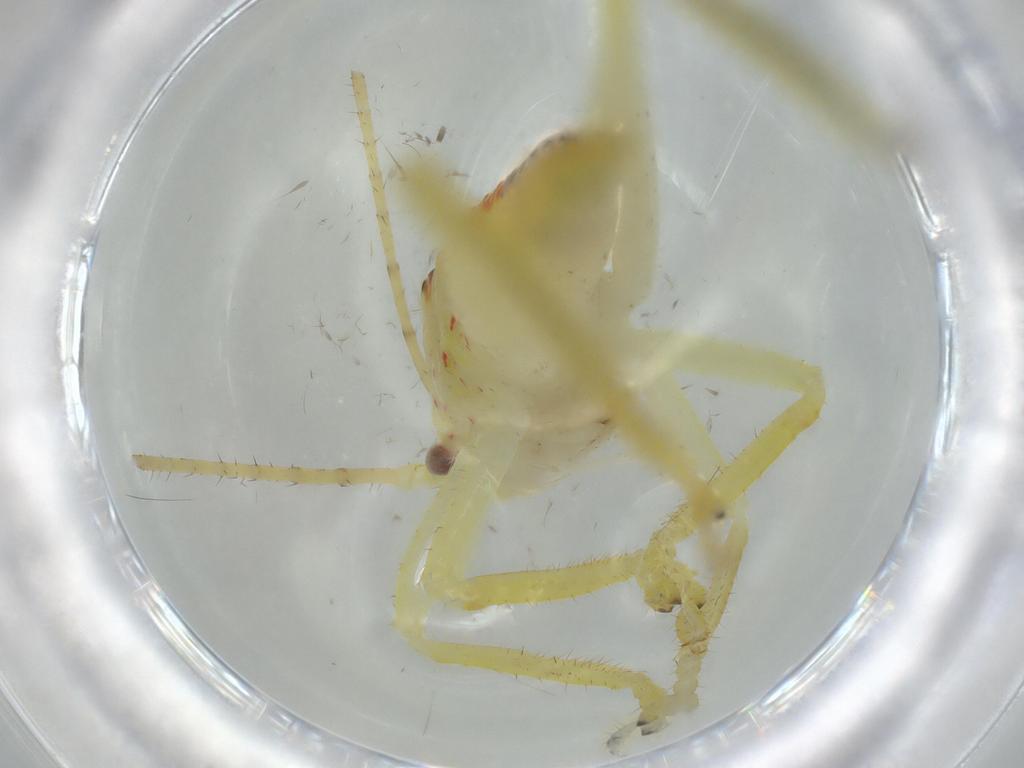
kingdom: Animalia
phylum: Arthropoda
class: Insecta
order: Orthoptera
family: Tettigoniidae
